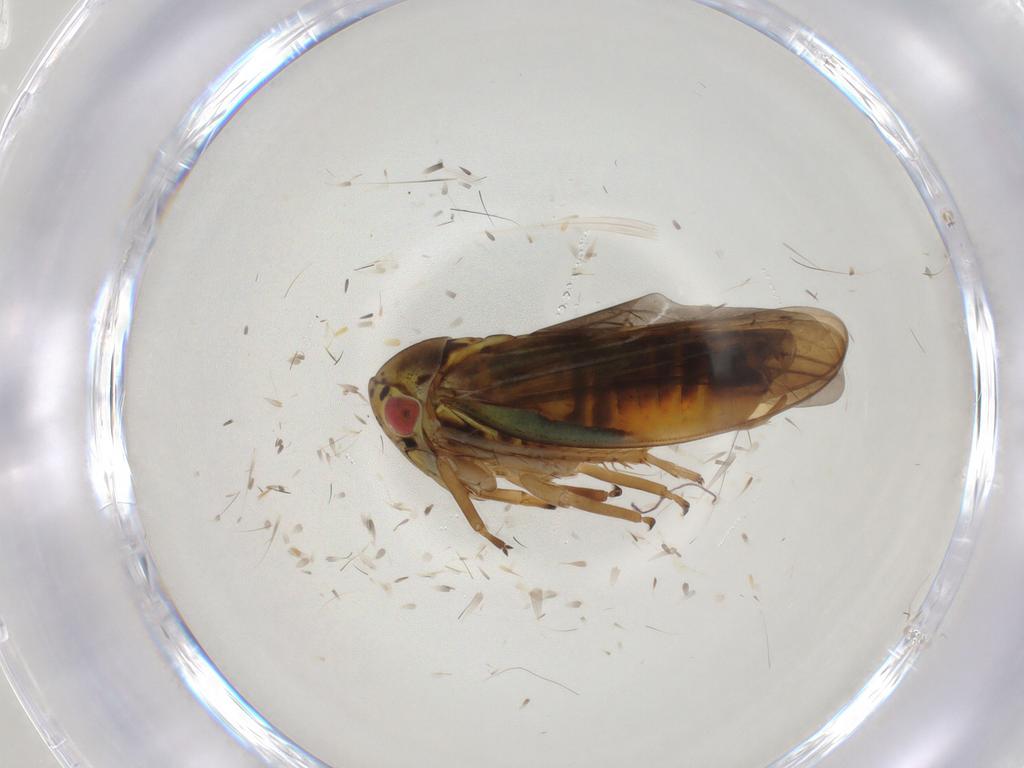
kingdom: Animalia
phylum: Arthropoda
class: Insecta
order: Hemiptera
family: Cicadellidae
